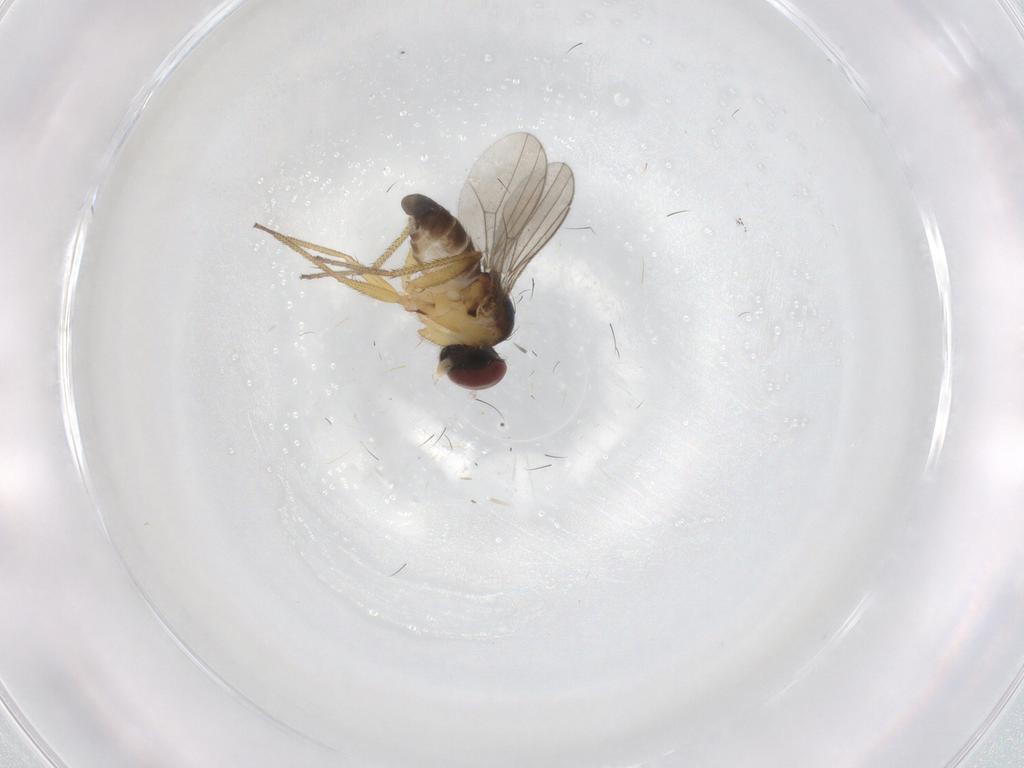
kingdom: Animalia
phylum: Arthropoda
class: Insecta
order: Diptera
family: Dolichopodidae
